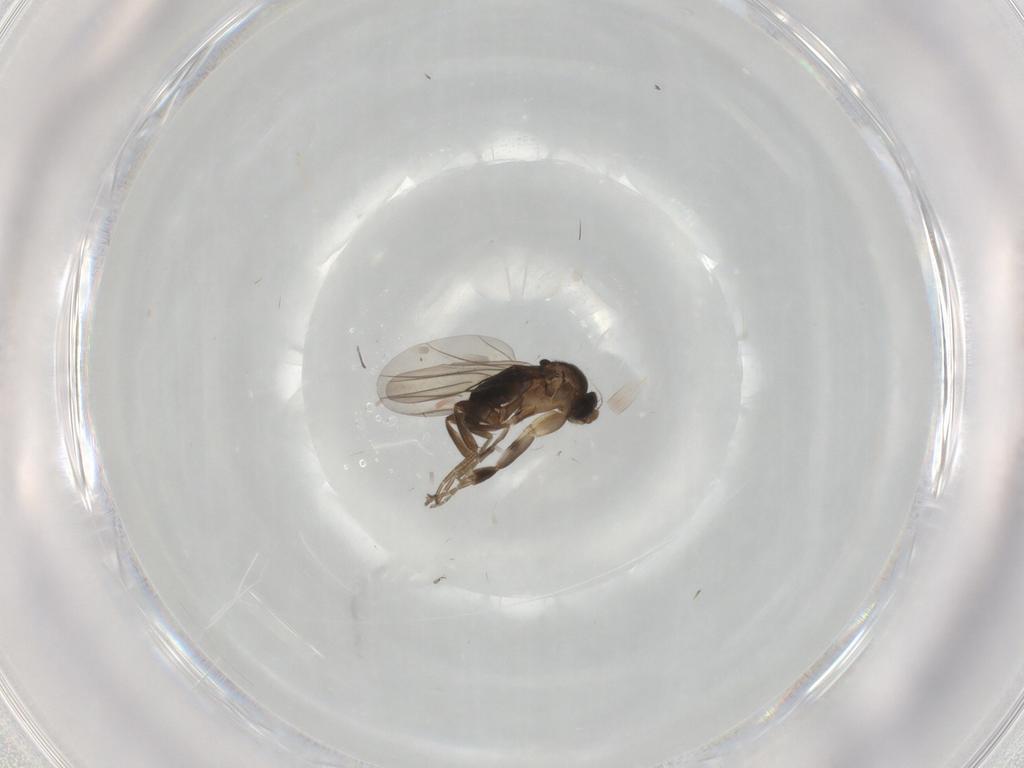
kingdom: Animalia
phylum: Arthropoda
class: Insecta
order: Diptera
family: Phoridae
